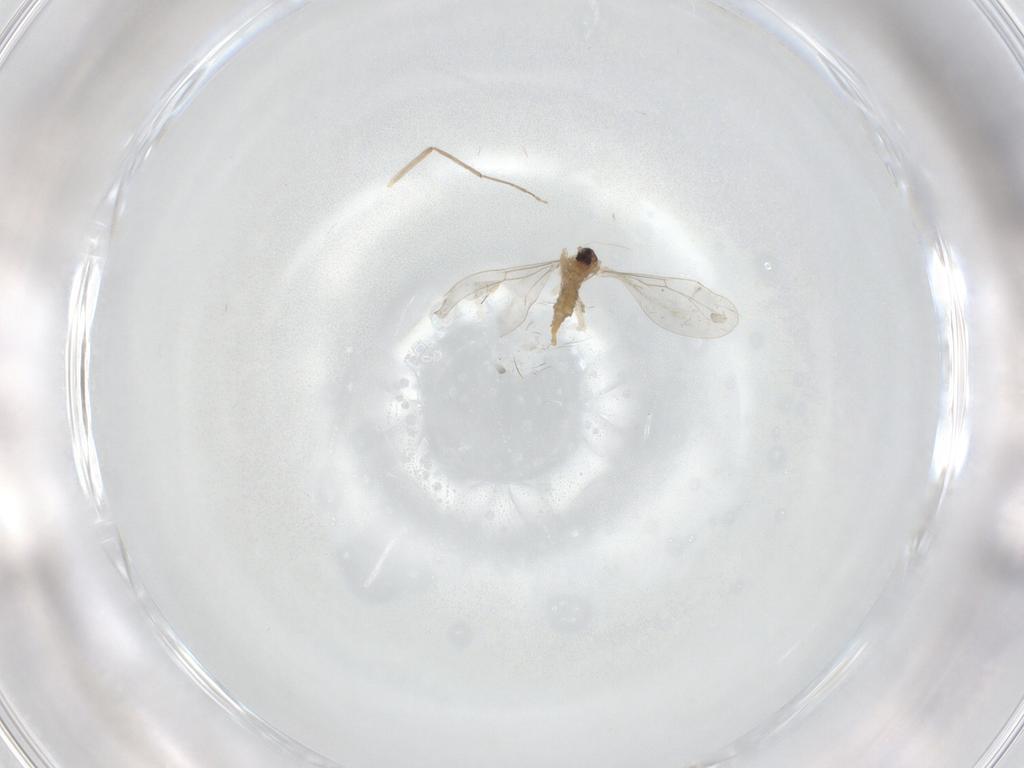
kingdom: Animalia
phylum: Arthropoda
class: Insecta
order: Diptera
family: Cecidomyiidae
